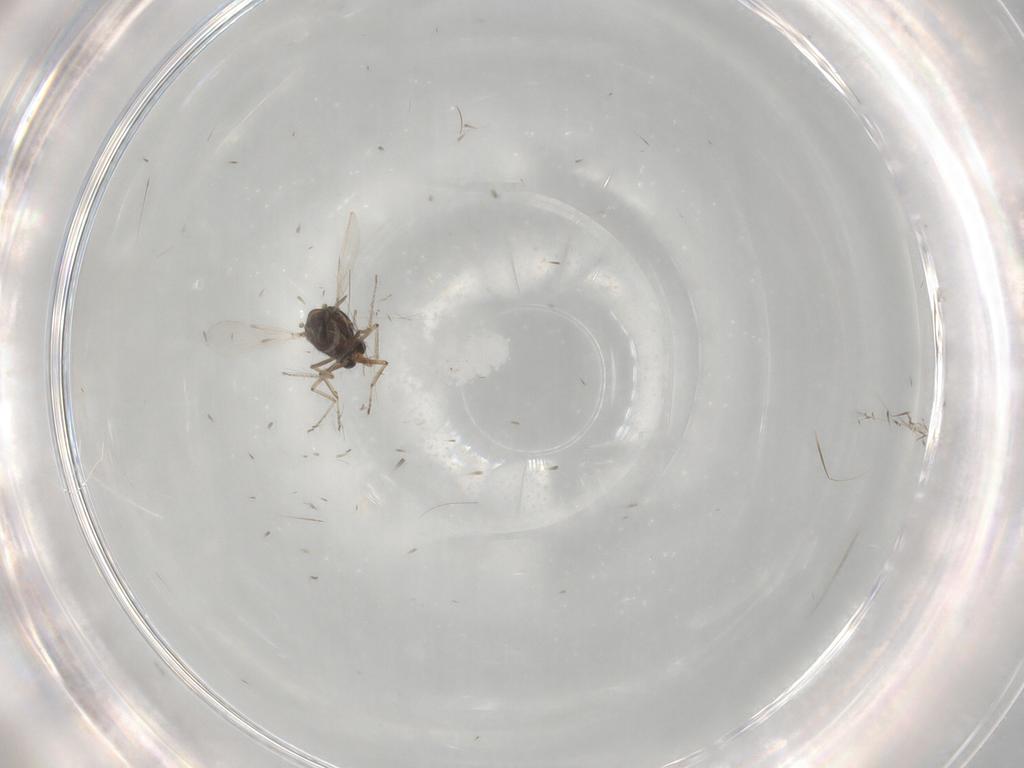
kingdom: Animalia
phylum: Arthropoda
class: Insecta
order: Diptera
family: Ceratopogonidae
